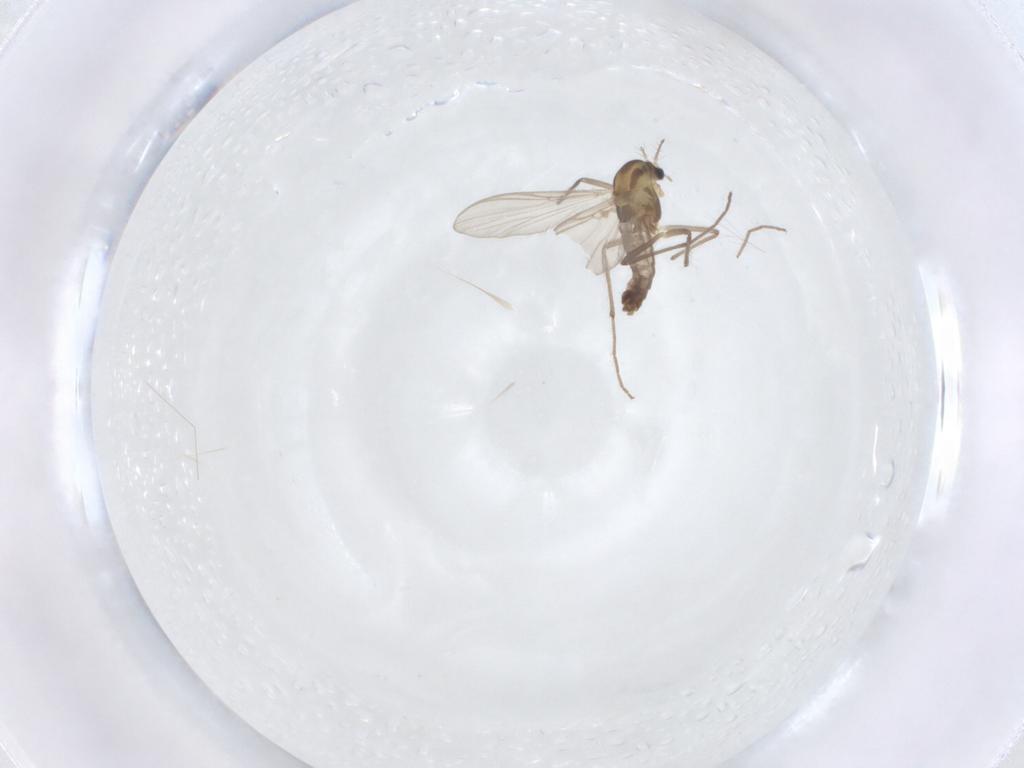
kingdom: Animalia
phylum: Arthropoda
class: Insecta
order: Diptera
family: Chironomidae
